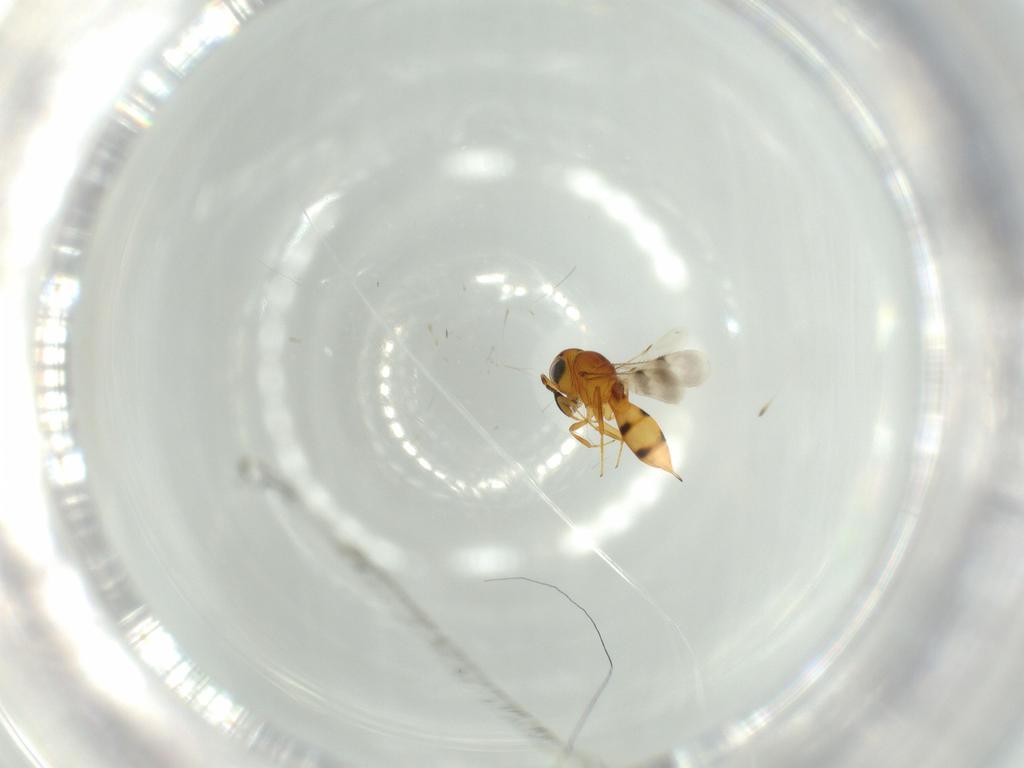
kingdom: Animalia
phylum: Arthropoda
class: Insecta
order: Hymenoptera
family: Scelionidae
